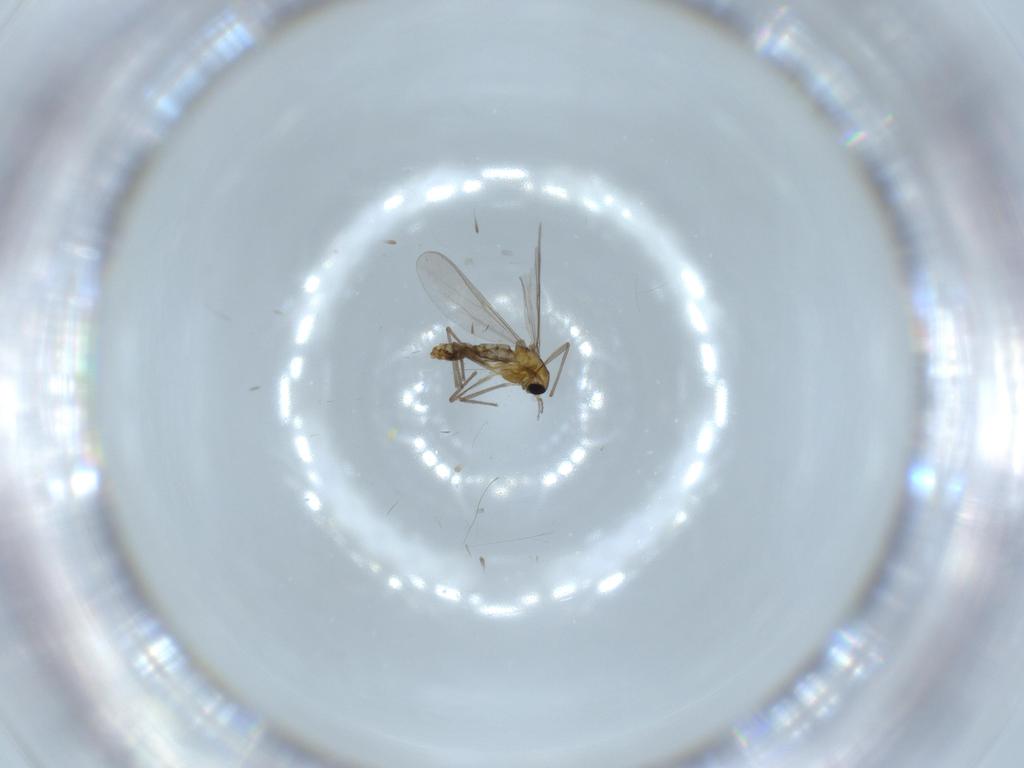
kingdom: Animalia
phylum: Arthropoda
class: Insecta
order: Diptera
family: Chironomidae
